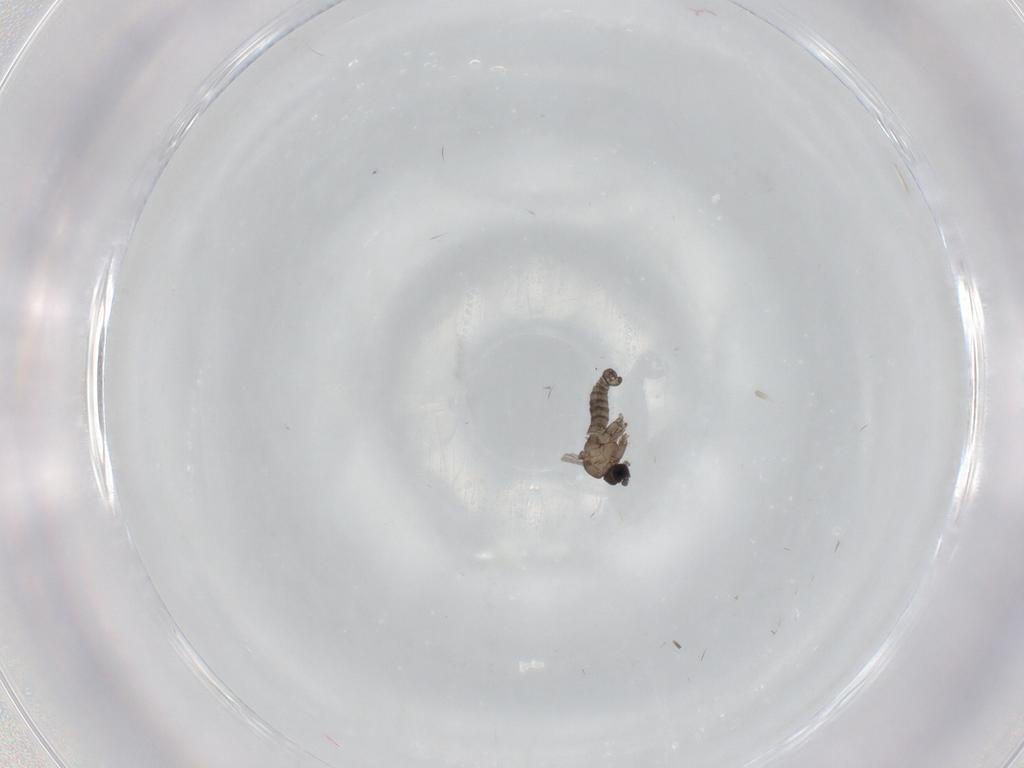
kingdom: Animalia
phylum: Arthropoda
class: Insecta
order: Diptera
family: Sciaridae
